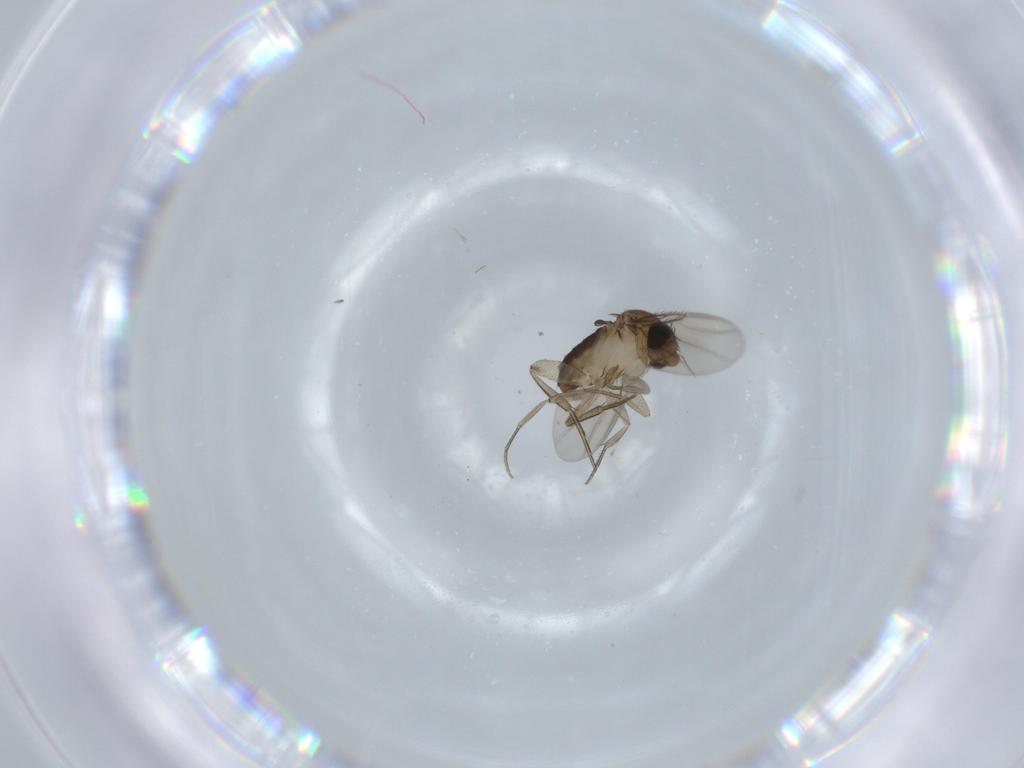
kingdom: Animalia
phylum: Arthropoda
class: Insecta
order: Diptera
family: Phoridae
